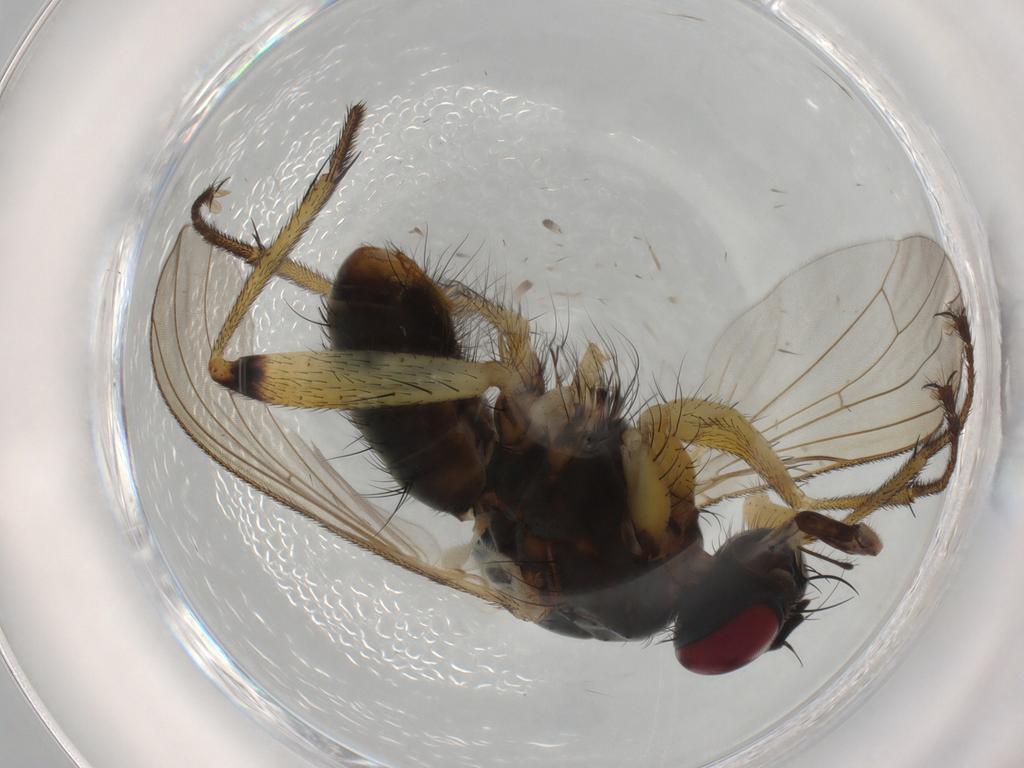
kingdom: Animalia
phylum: Arthropoda
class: Insecta
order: Diptera
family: Muscidae
